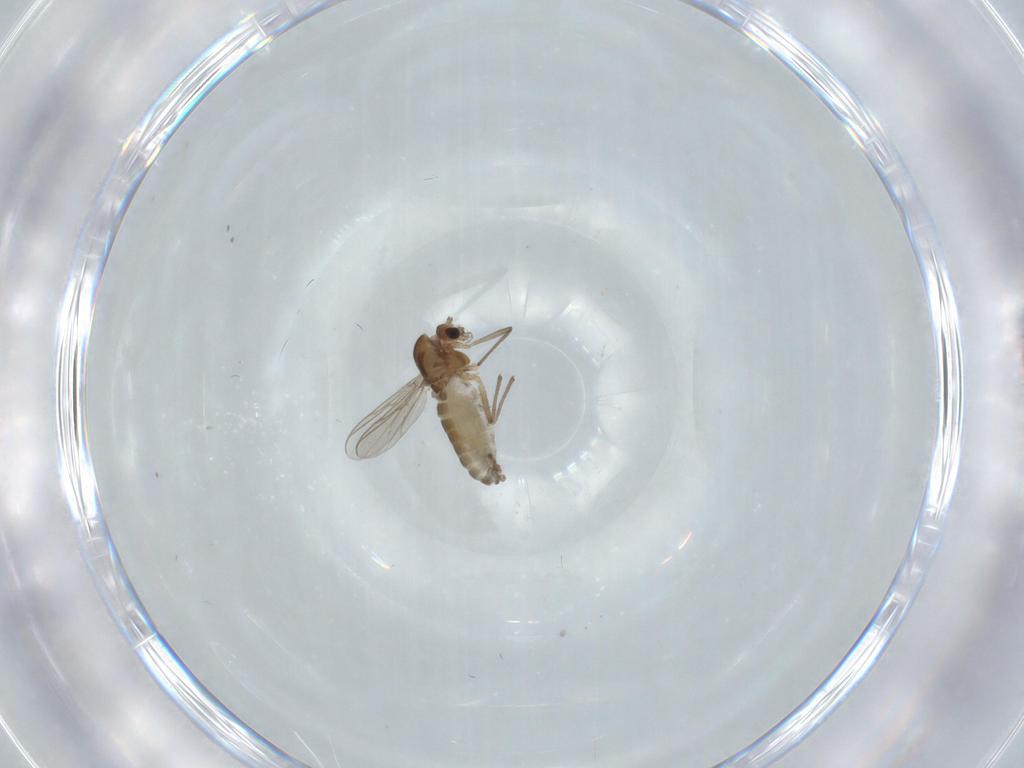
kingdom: Animalia
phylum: Arthropoda
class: Insecta
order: Diptera
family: Chironomidae
